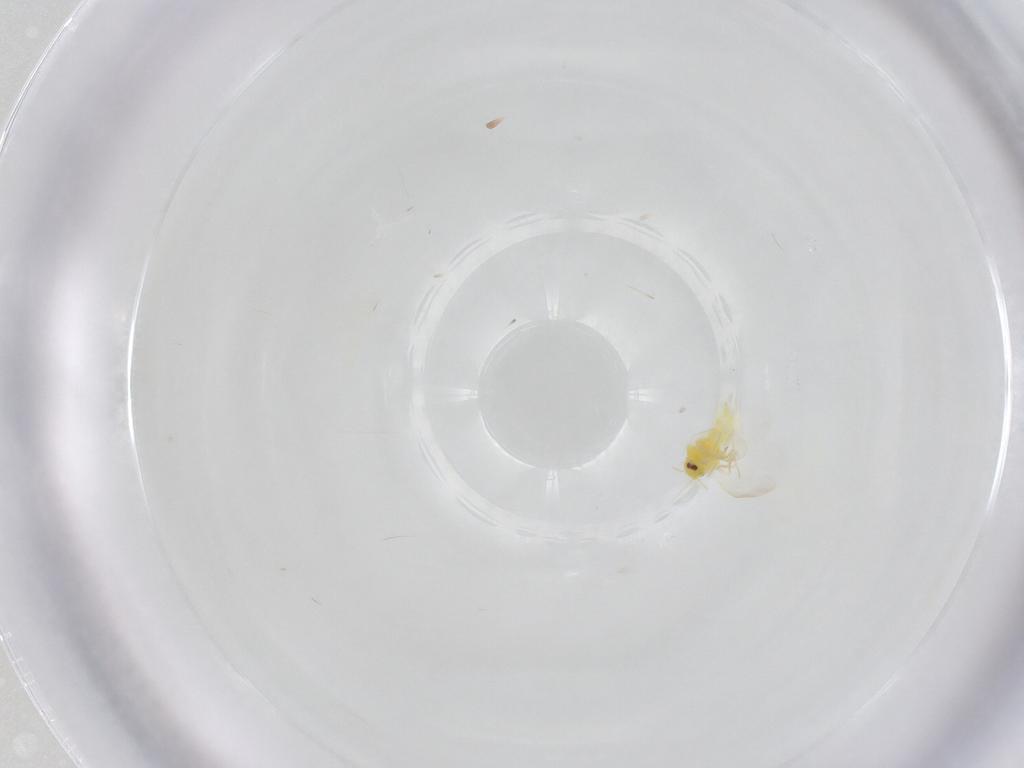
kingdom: Animalia
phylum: Arthropoda
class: Insecta
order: Hemiptera
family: Aleyrodidae
